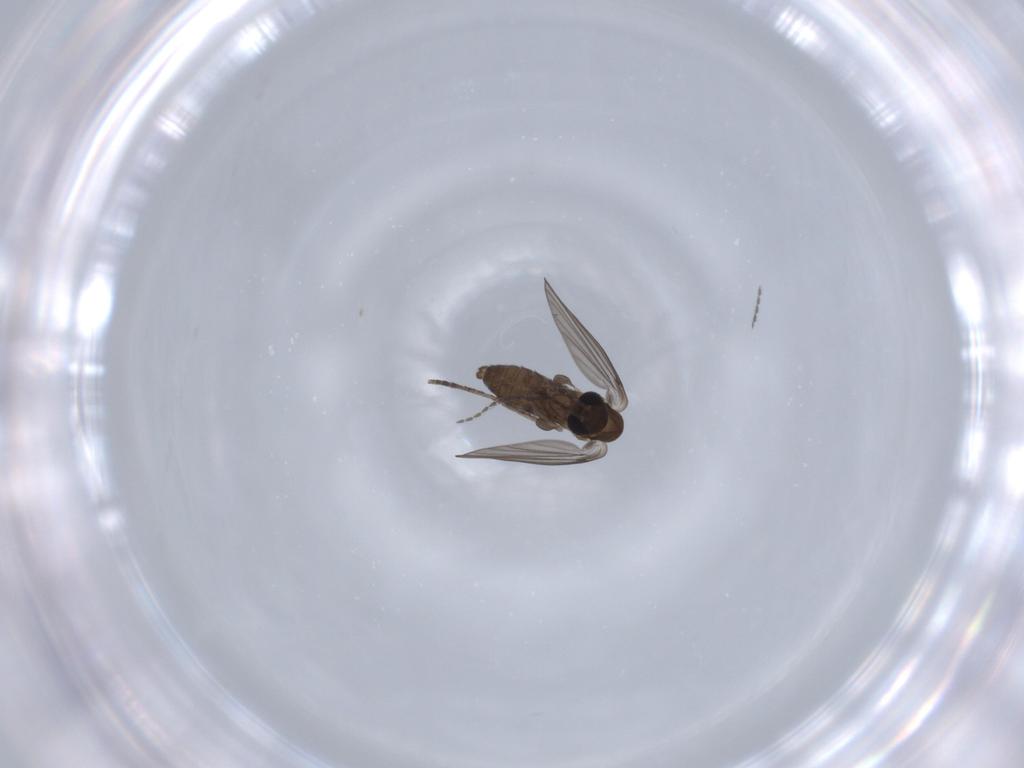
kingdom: Animalia
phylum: Arthropoda
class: Insecta
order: Diptera
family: Psychodidae
